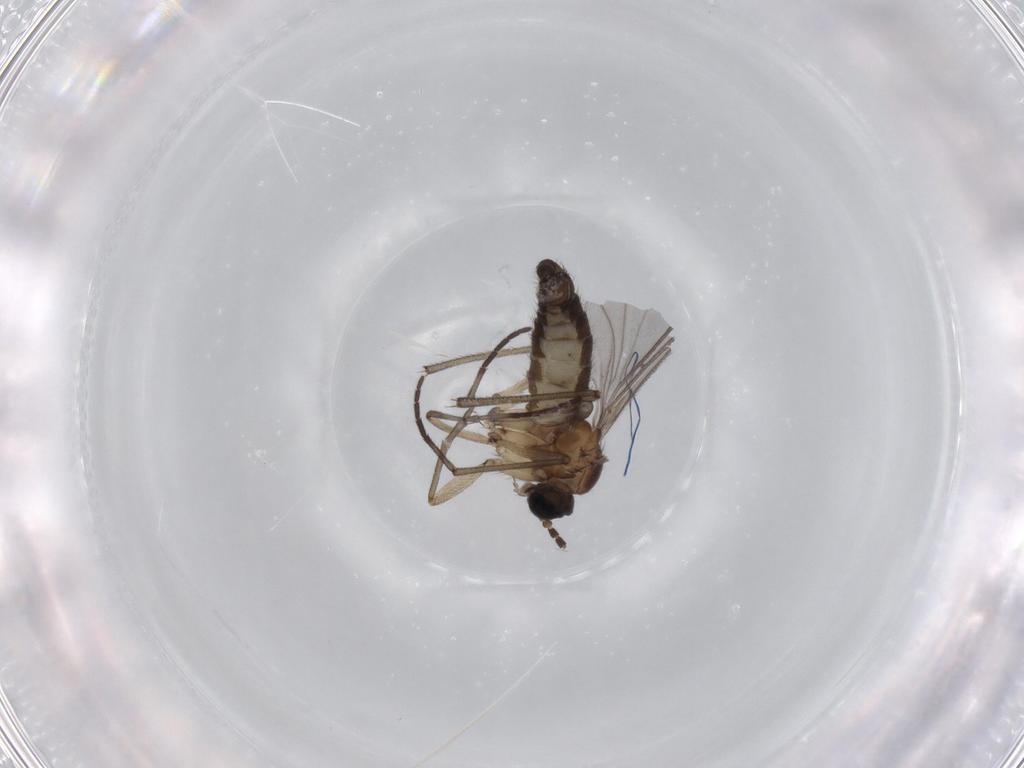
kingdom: Animalia
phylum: Arthropoda
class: Insecta
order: Diptera
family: Sciaridae
